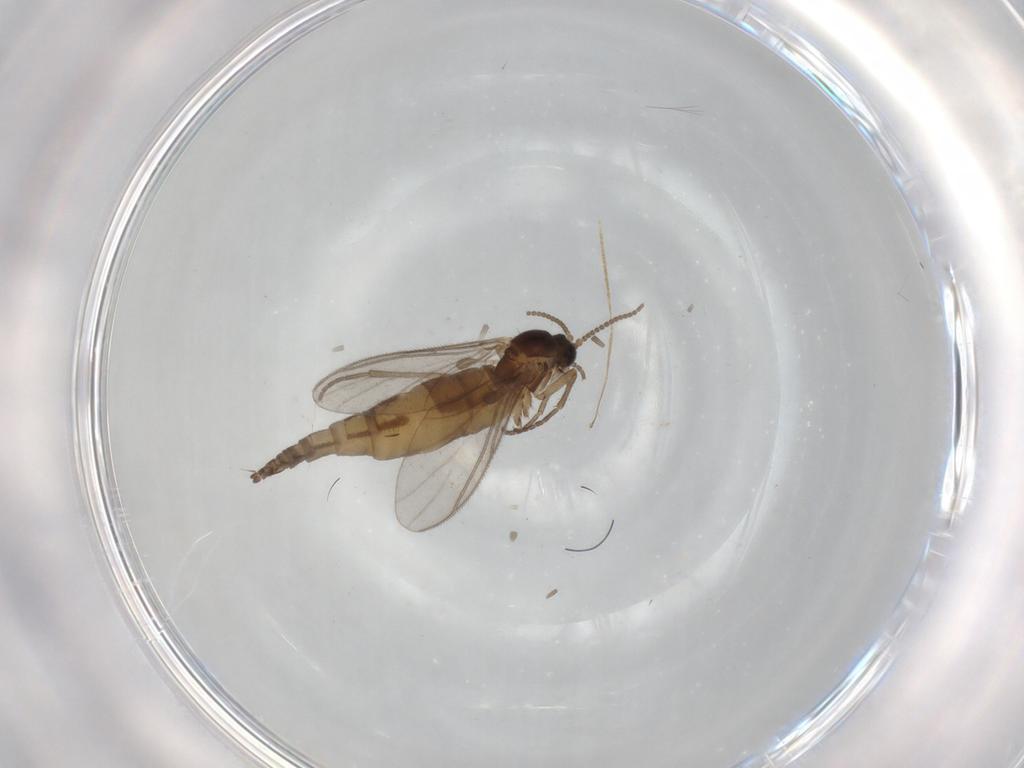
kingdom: Animalia
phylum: Arthropoda
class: Insecta
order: Diptera
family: Sciaridae
